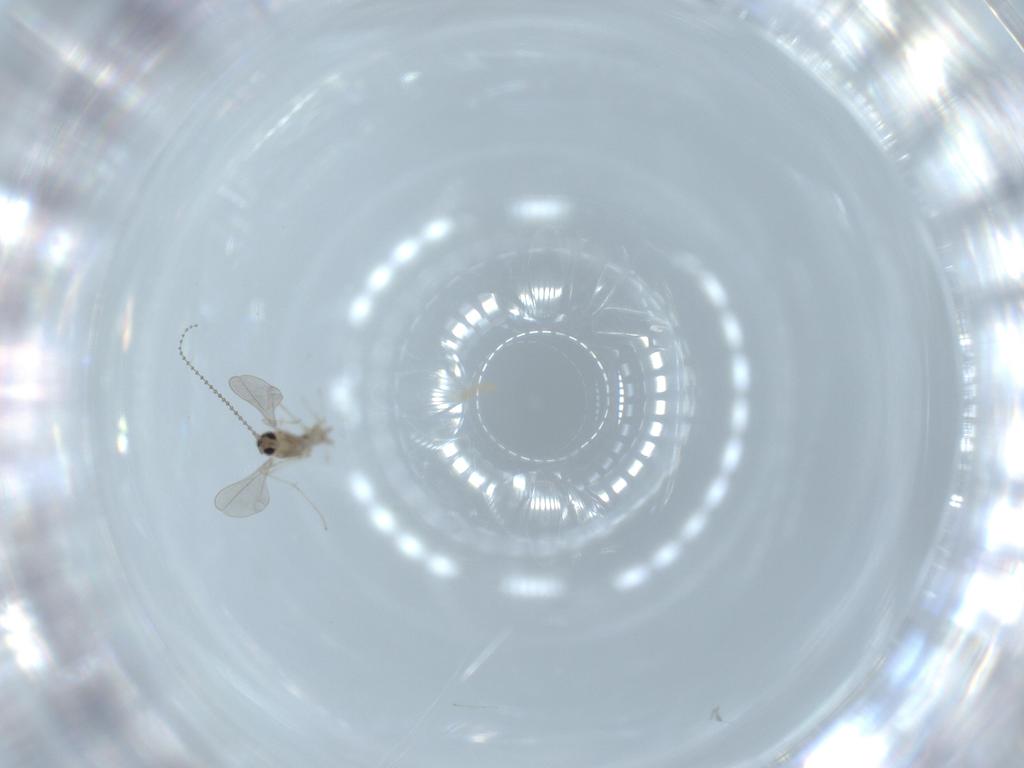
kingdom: Animalia
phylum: Arthropoda
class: Insecta
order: Diptera
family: Cecidomyiidae
